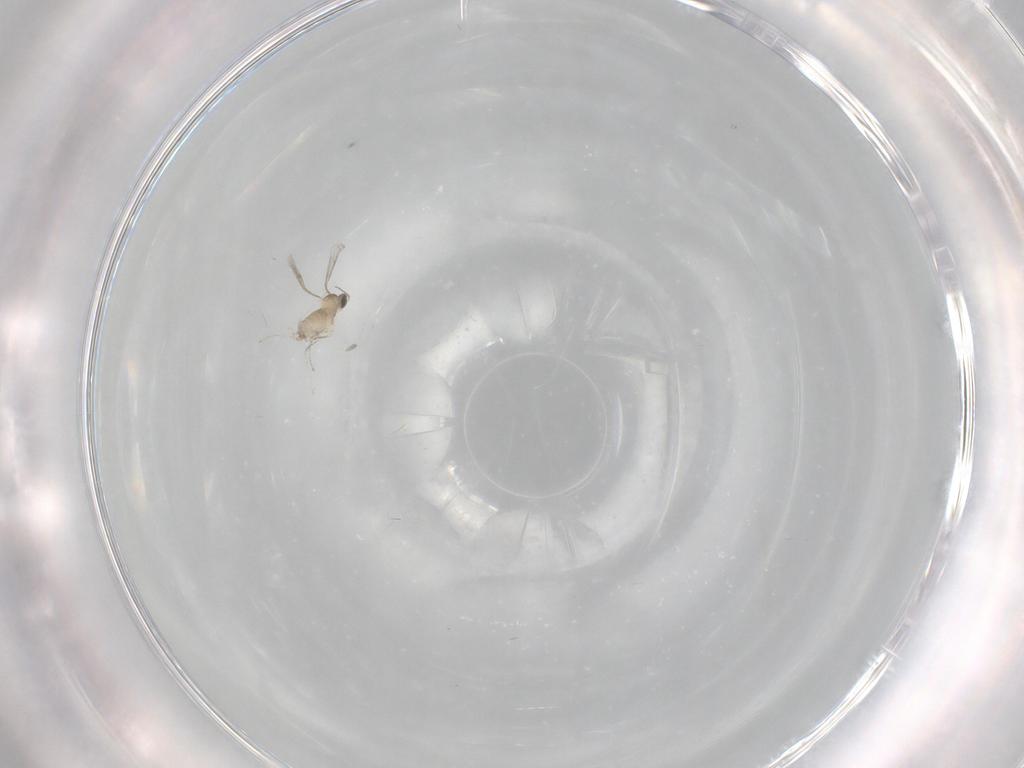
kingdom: Animalia
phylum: Arthropoda
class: Insecta
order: Diptera
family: Cecidomyiidae
